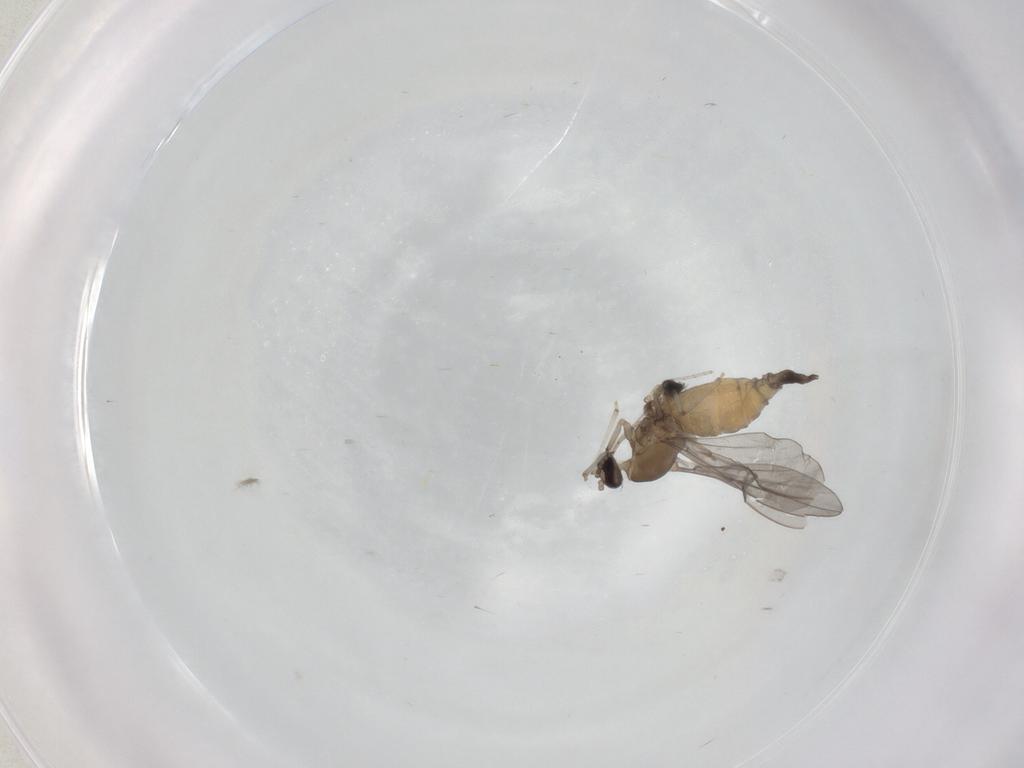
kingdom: Animalia
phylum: Arthropoda
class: Insecta
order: Diptera
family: Cecidomyiidae
